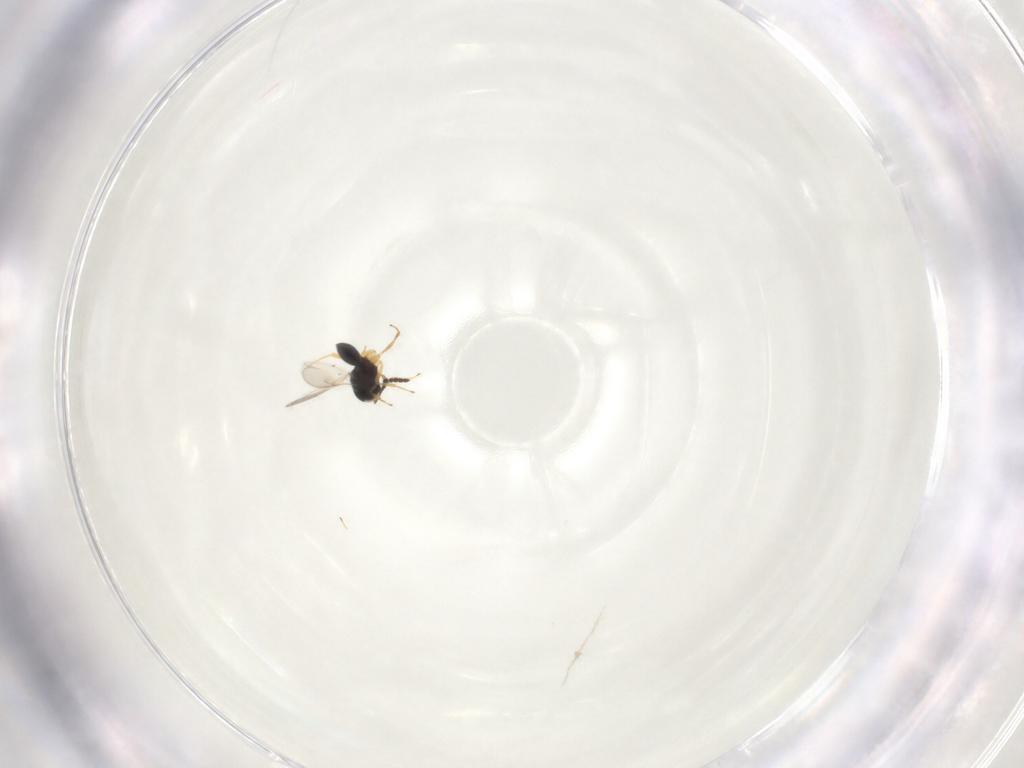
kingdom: Animalia
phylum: Arthropoda
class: Insecta
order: Hymenoptera
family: Scelionidae
